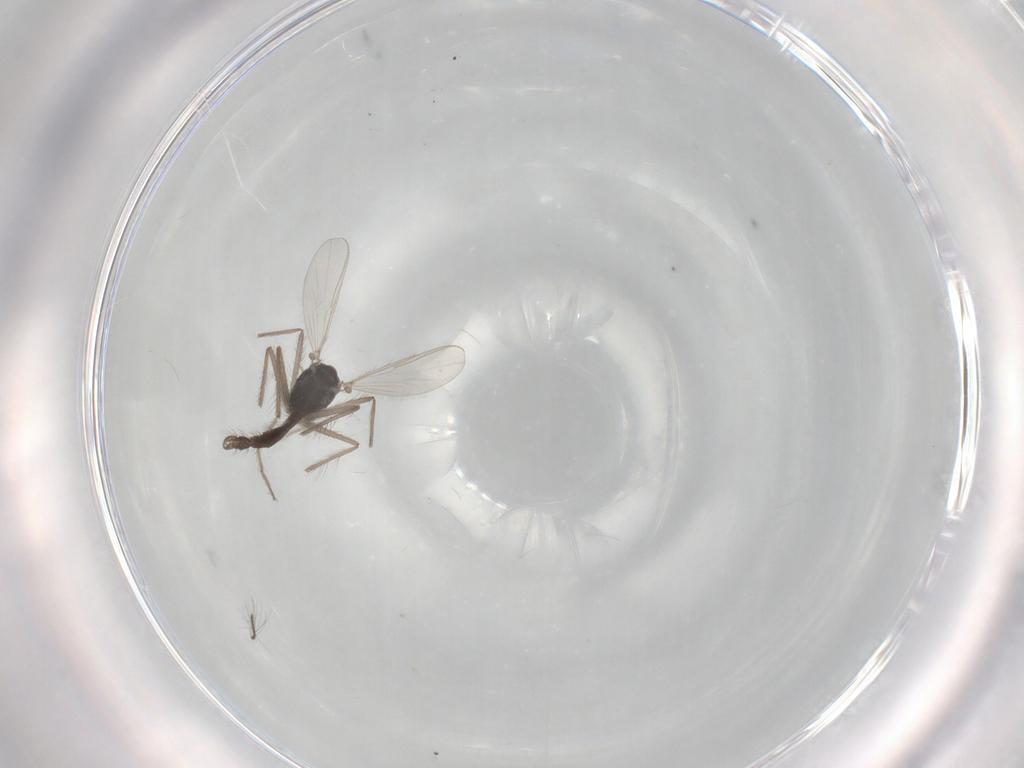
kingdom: Animalia
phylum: Arthropoda
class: Insecta
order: Diptera
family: Chironomidae
